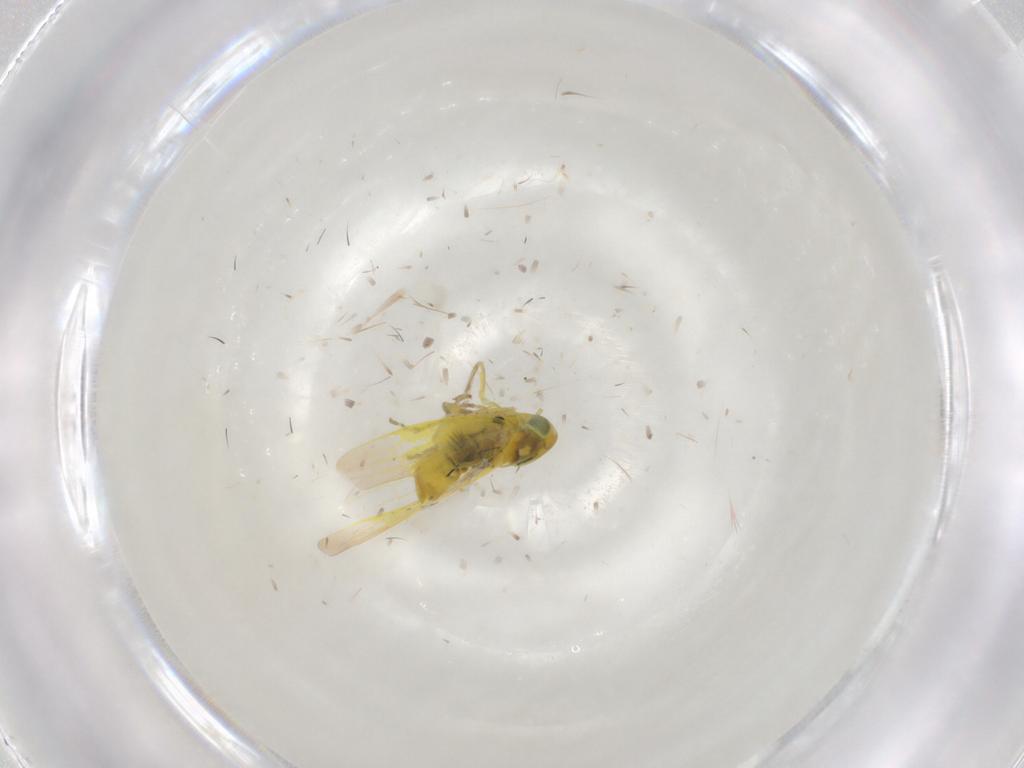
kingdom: Animalia
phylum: Arthropoda
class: Insecta
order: Hemiptera
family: Cicadellidae
